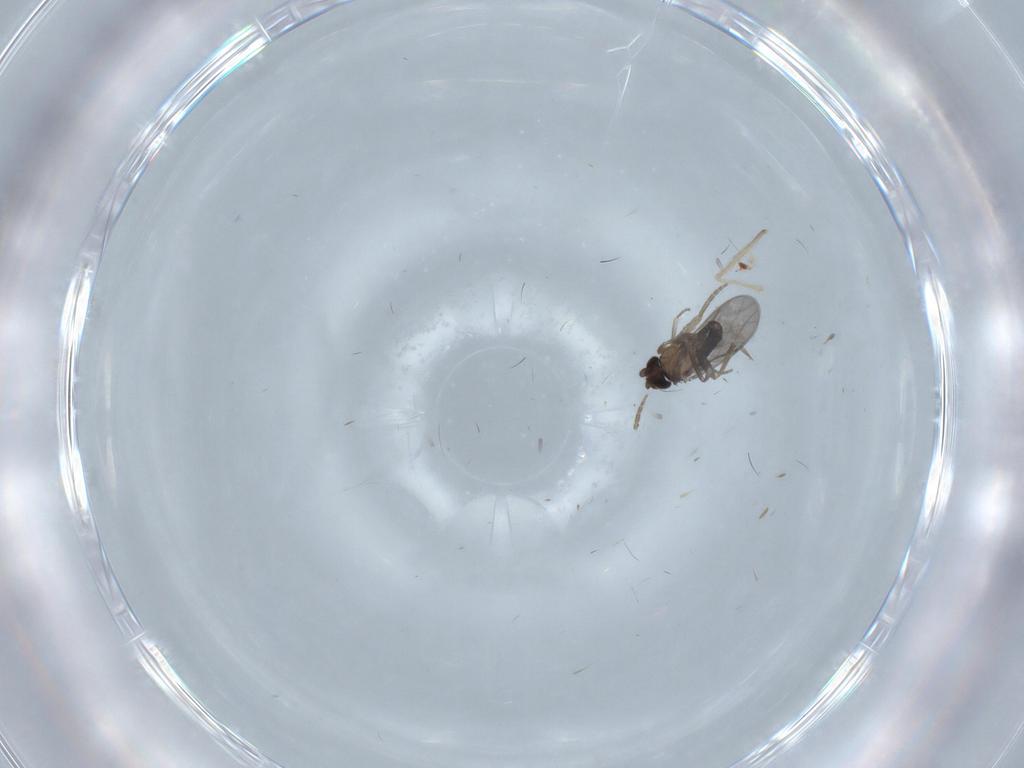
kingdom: Animalia
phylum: Arthropoda
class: Insecta
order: Diptera
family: Chironomidae
